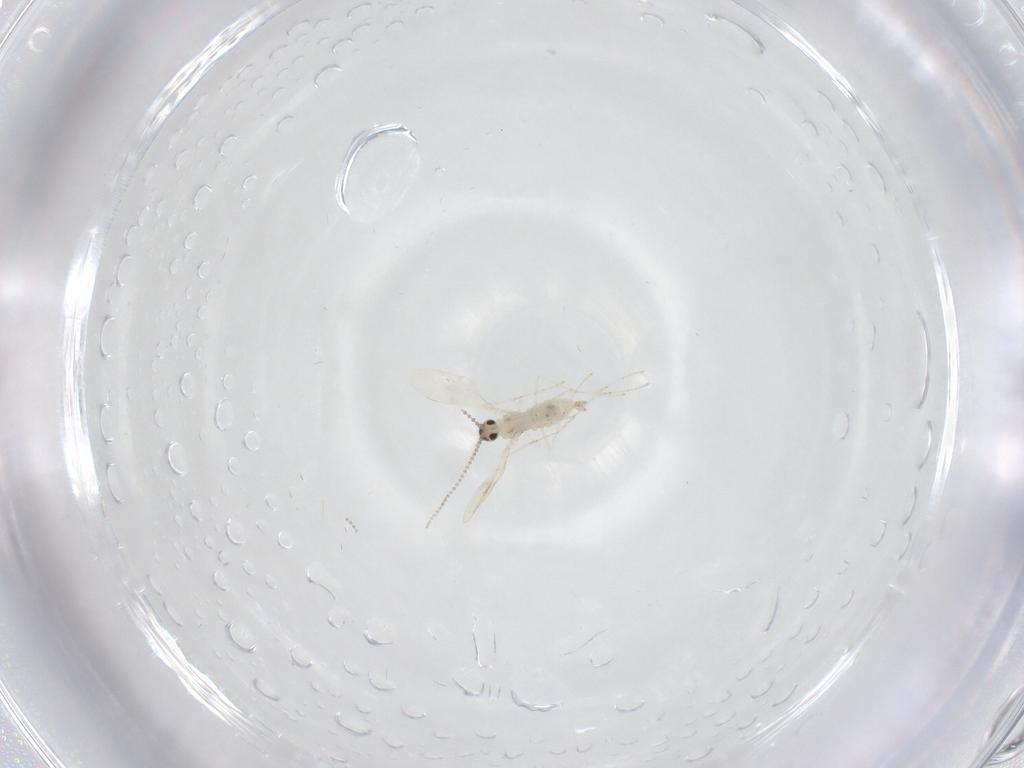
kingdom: Animalia
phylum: Arthropoda
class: Insecta
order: Diptera
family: Cecidomyiidae
